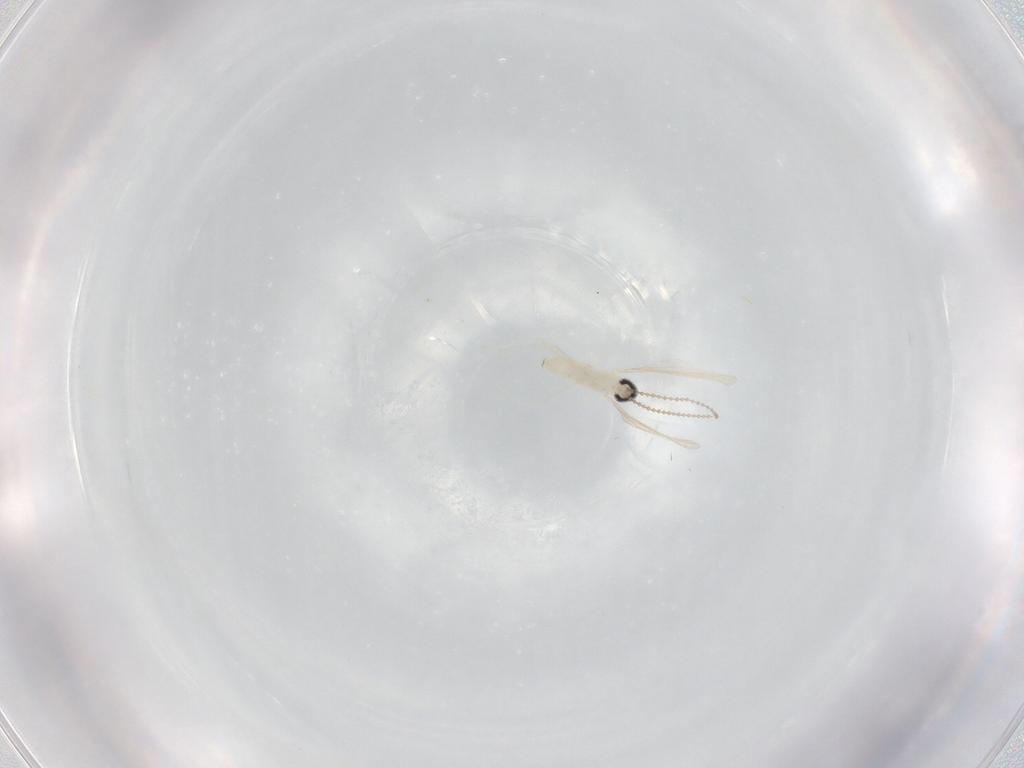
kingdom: Animalia
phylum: Arthropoda
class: Insecta
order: Diptera
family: Cecidomyiidae
